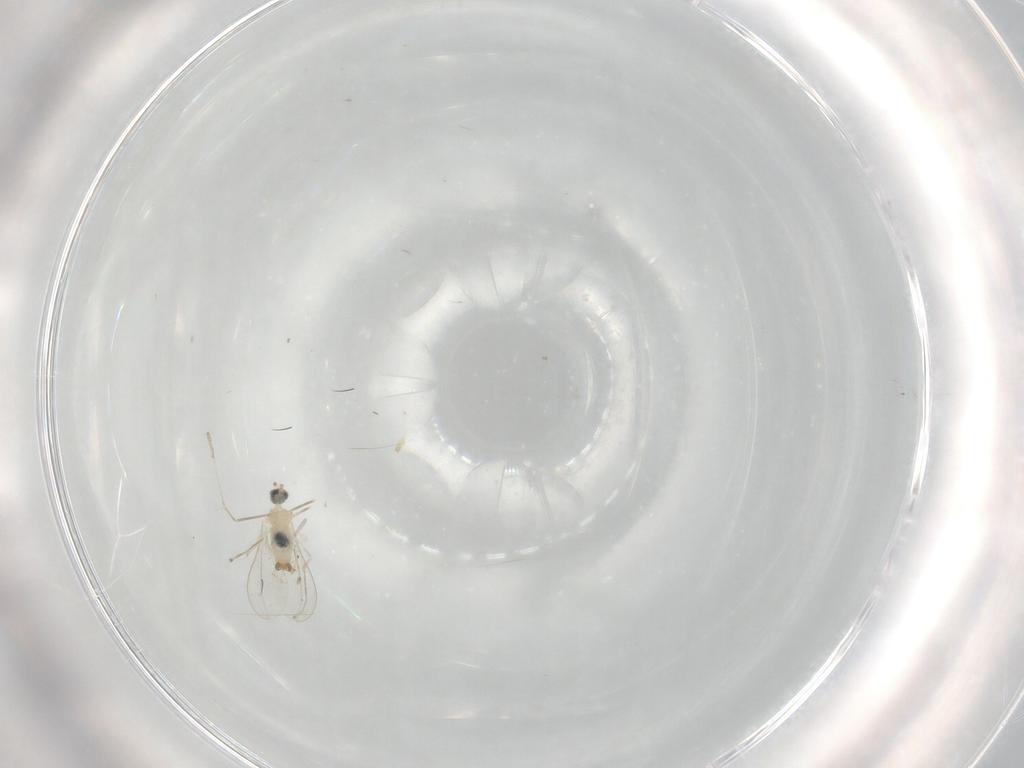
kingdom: Animalia
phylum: Arthropoda
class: Insecta
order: Diptera
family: Cecidomyiidae
